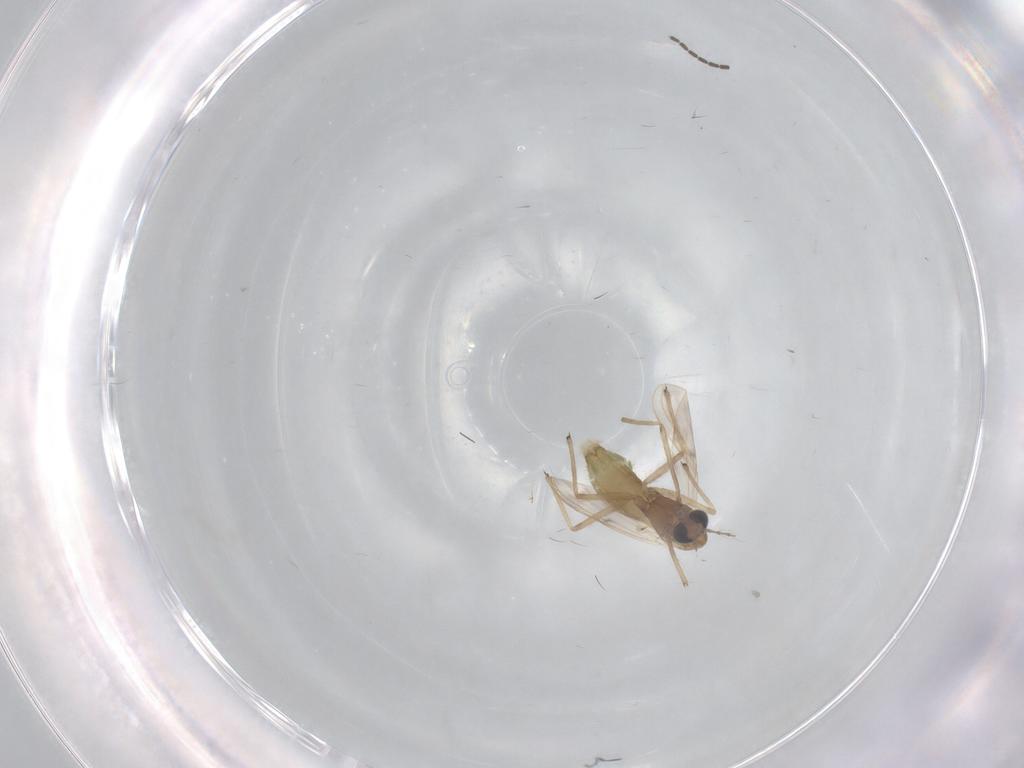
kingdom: Animalia
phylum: Arthropoda
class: Insecta
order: Diptera
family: Chironomidae
